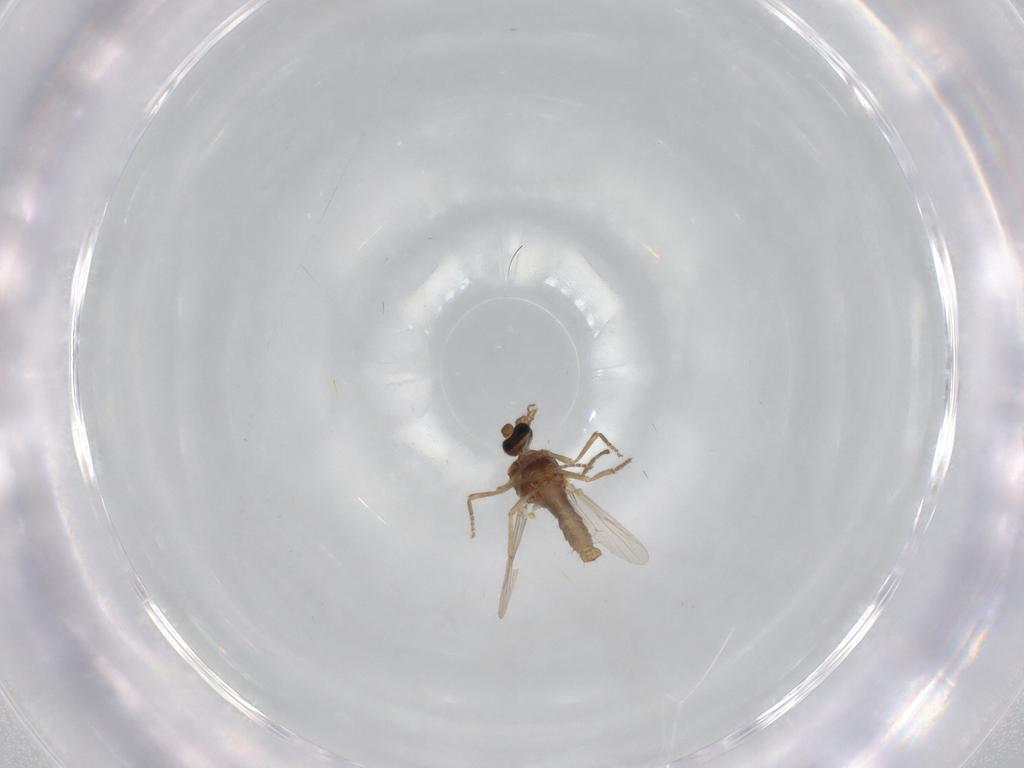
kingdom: Animalia
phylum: Arthropoda
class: Insecta
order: Diptera
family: Ceratopogonidae
